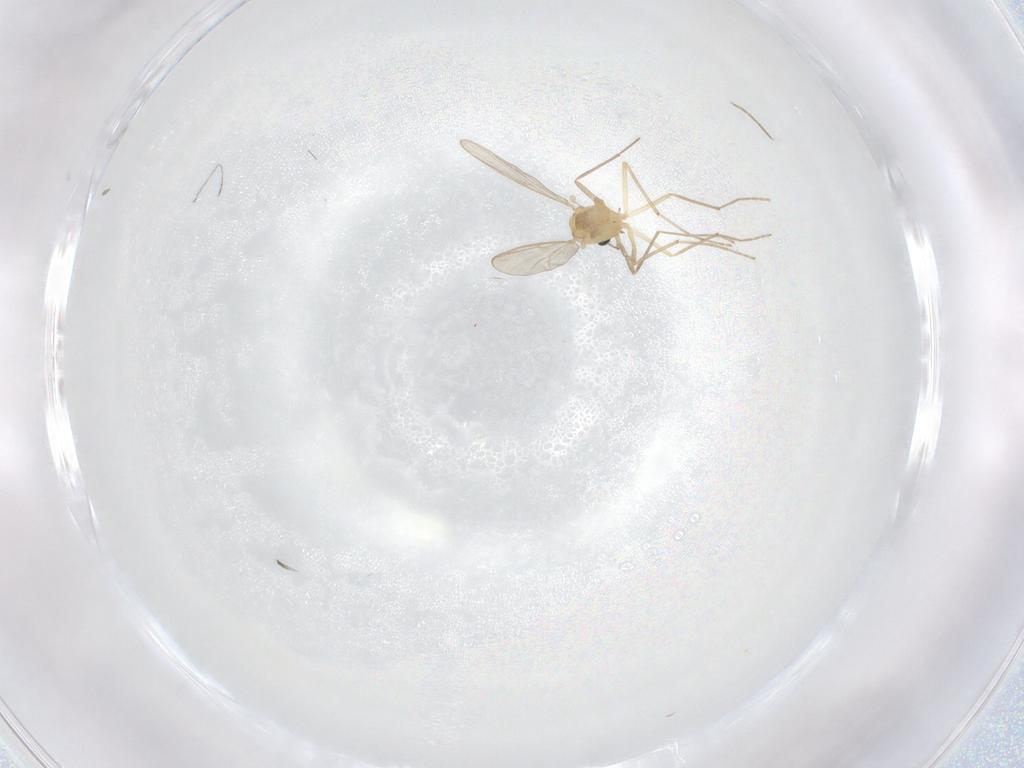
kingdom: Animalia
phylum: Arthropoda
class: Insecta
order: Diptera
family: Chironomidae
